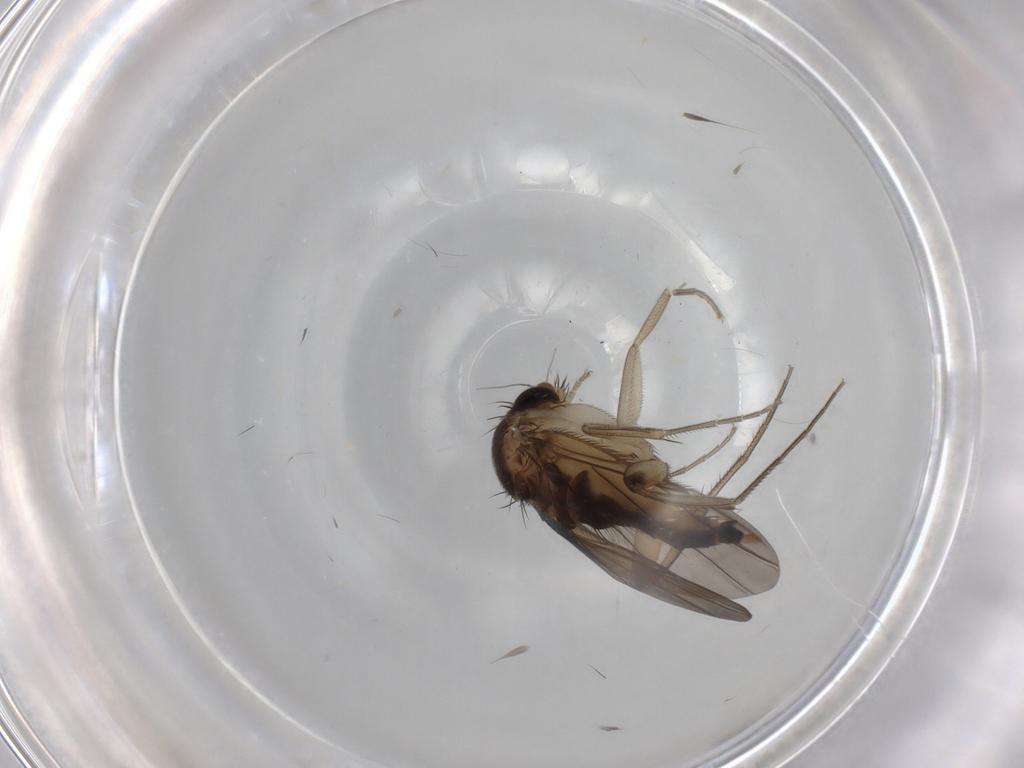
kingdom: Animalia
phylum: Arthropoda
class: Insecta
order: Diptera
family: Phoridae
